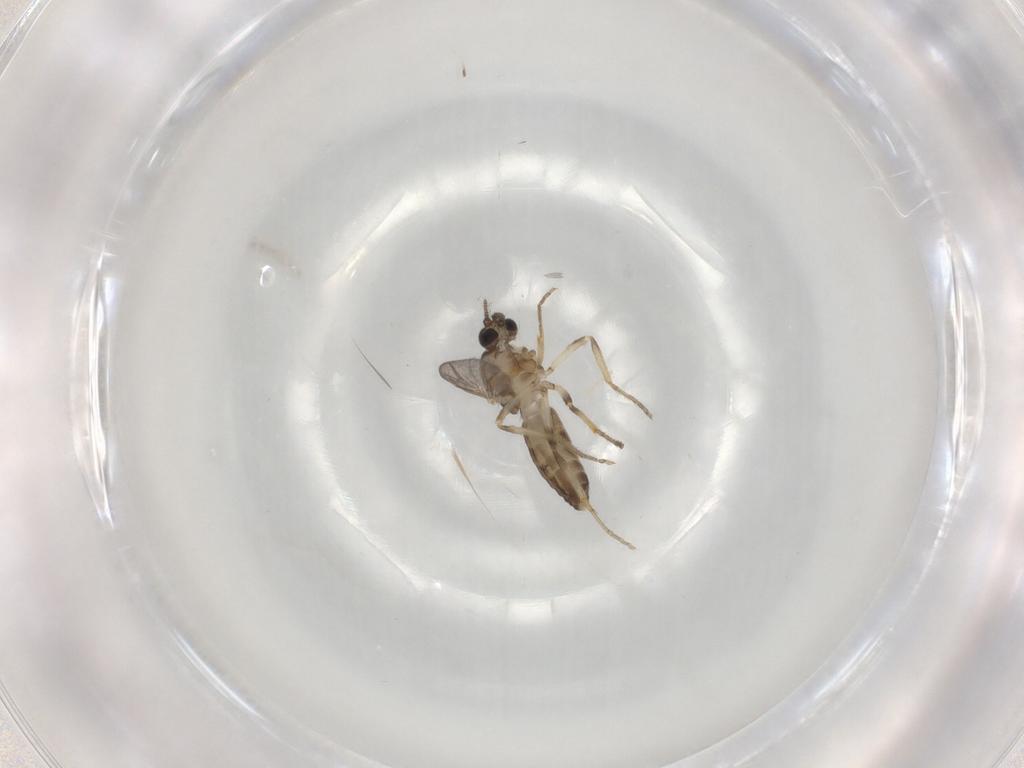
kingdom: Animalia
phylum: Arthropoda
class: Insecta
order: Diptera
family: Ceratopogonidae
